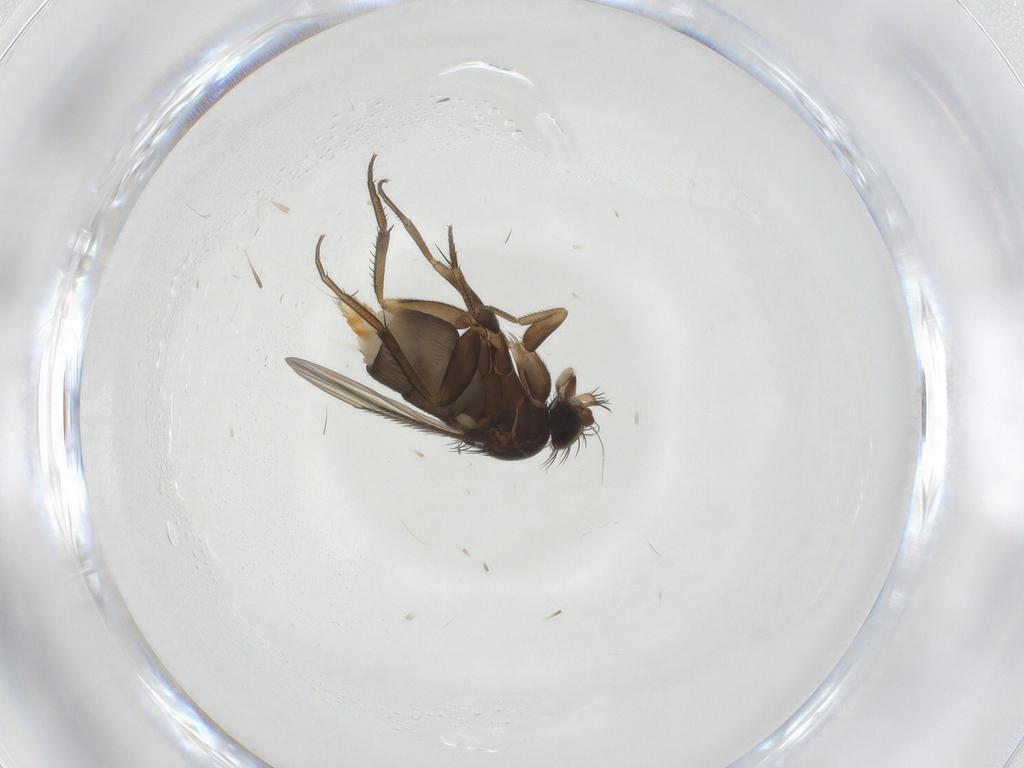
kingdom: Animalia
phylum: Arthropoda
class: Insecta
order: Diptera
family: Phoridae
